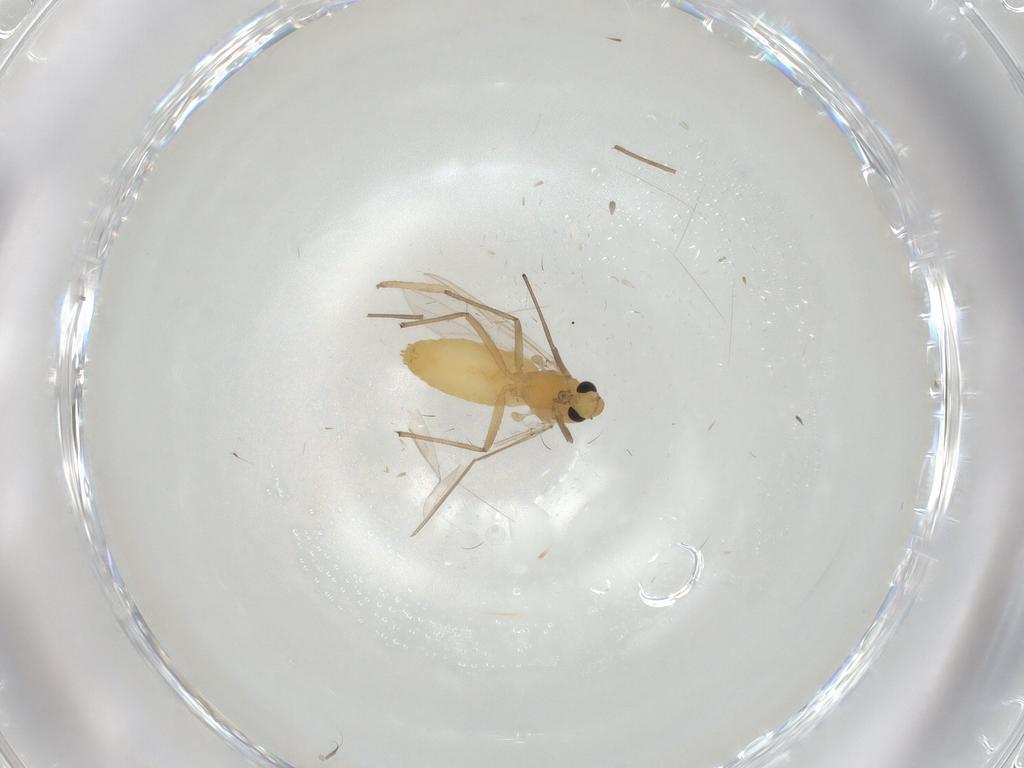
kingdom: Animalia
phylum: Arthropoda
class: Insecta
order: Diptera
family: Chironomidae
